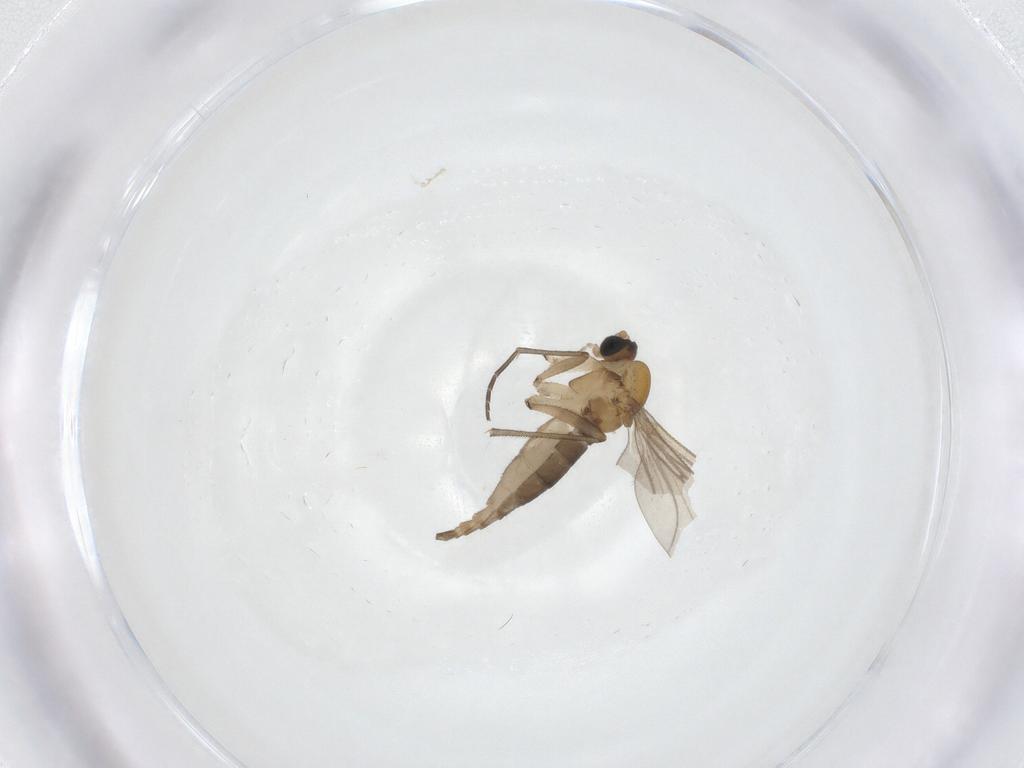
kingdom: Animalia
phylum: Arthropoda
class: Insecta
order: Diptera
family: Sciaridae
